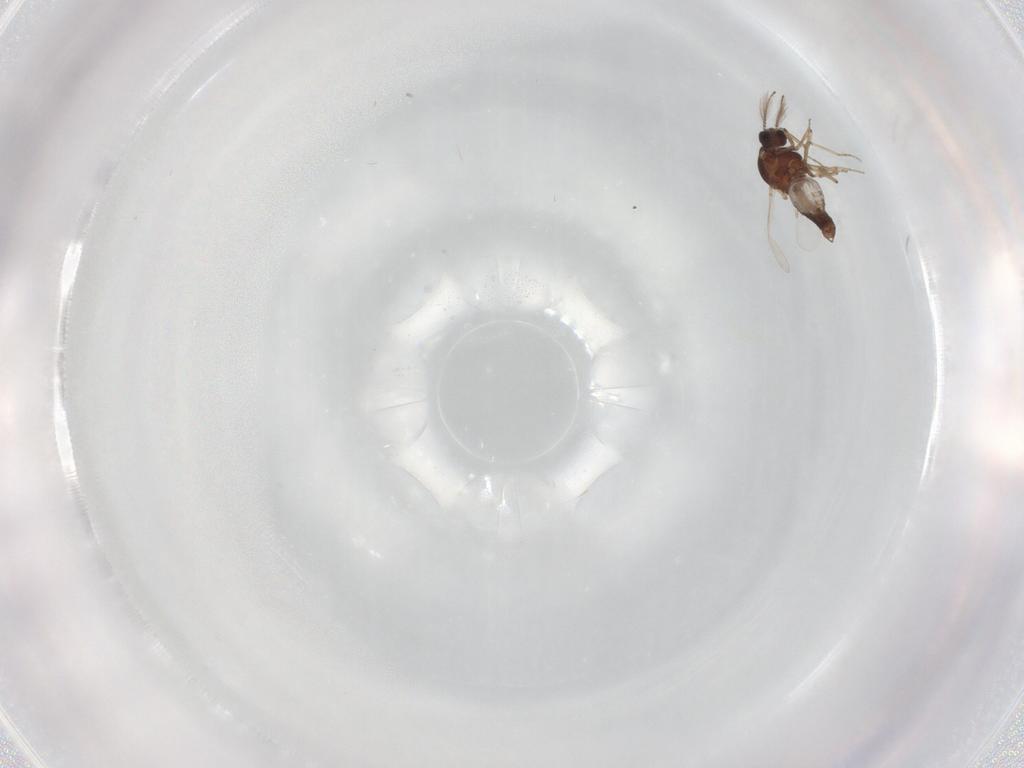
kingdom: Animalia
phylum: Arthropoda
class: Insecta
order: Diptera
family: Ceratopogonidae
